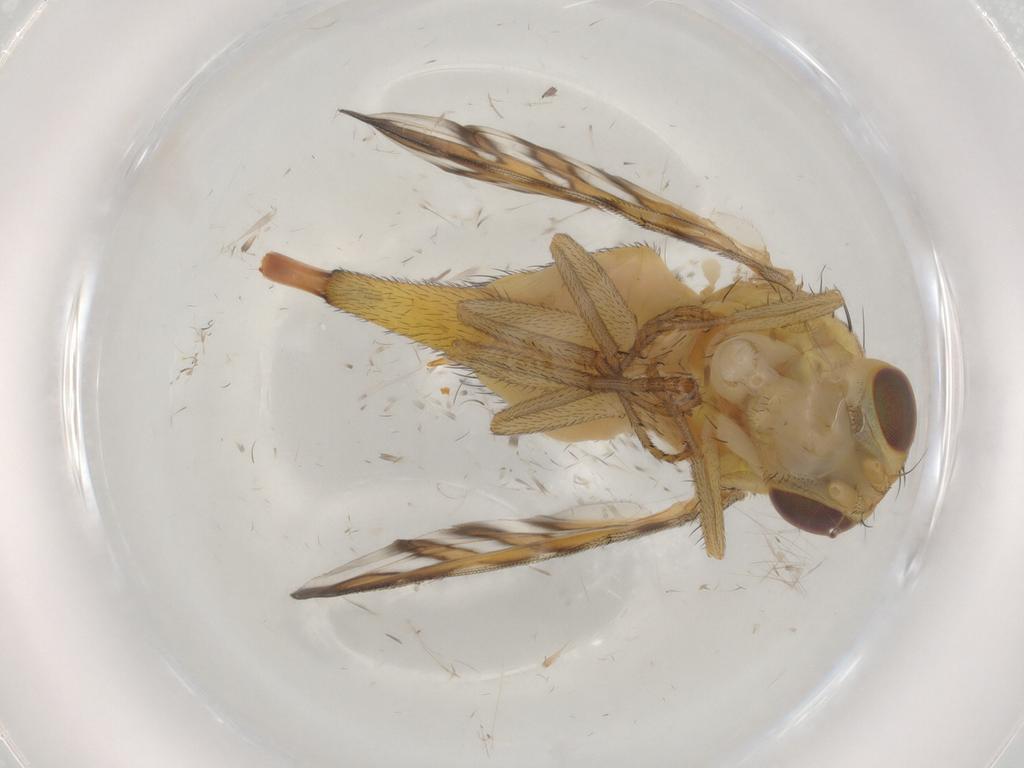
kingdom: Animalia
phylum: Arthropoda
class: Insecta
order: Diptera
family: Tephritidae
